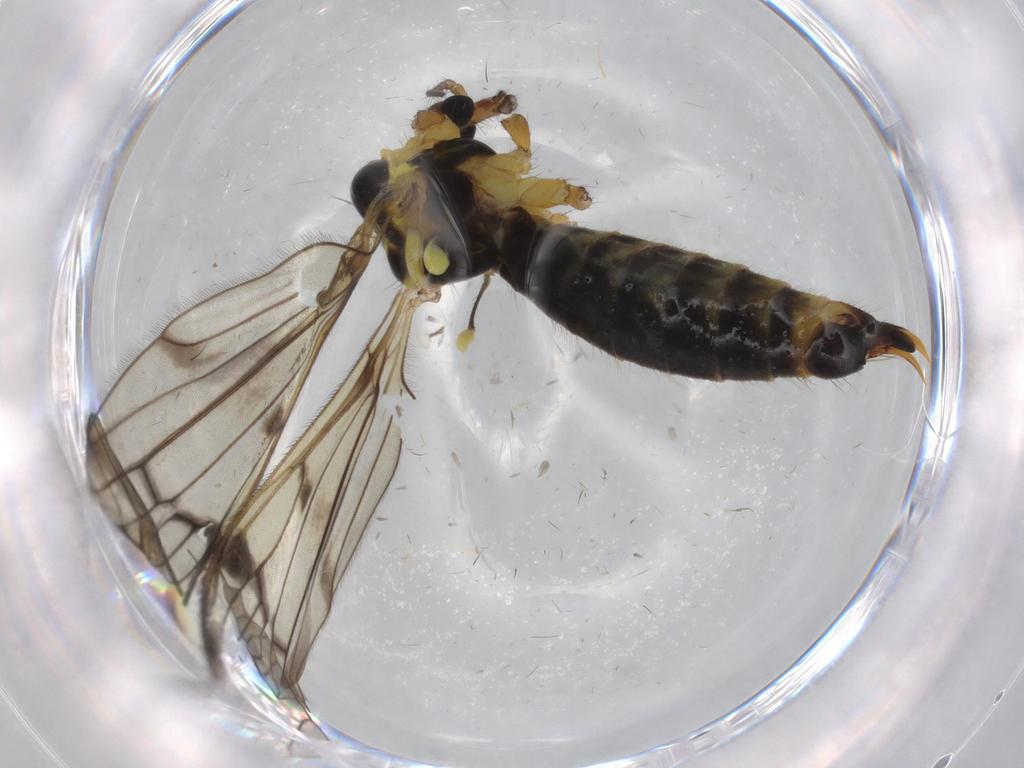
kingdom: Animalia
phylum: Arthropoda
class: Insecta
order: Diptera
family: Limoniidae
